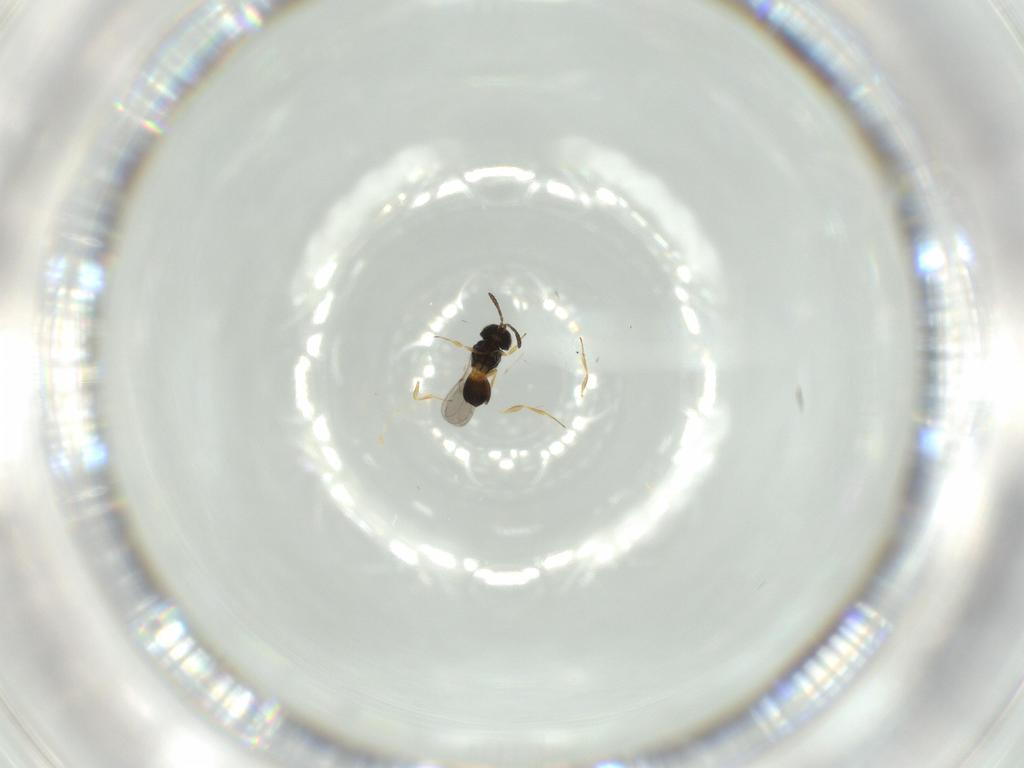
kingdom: Animalia
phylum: Arthropoda
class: Insecta
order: Hymenoptera
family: Scelionidae
